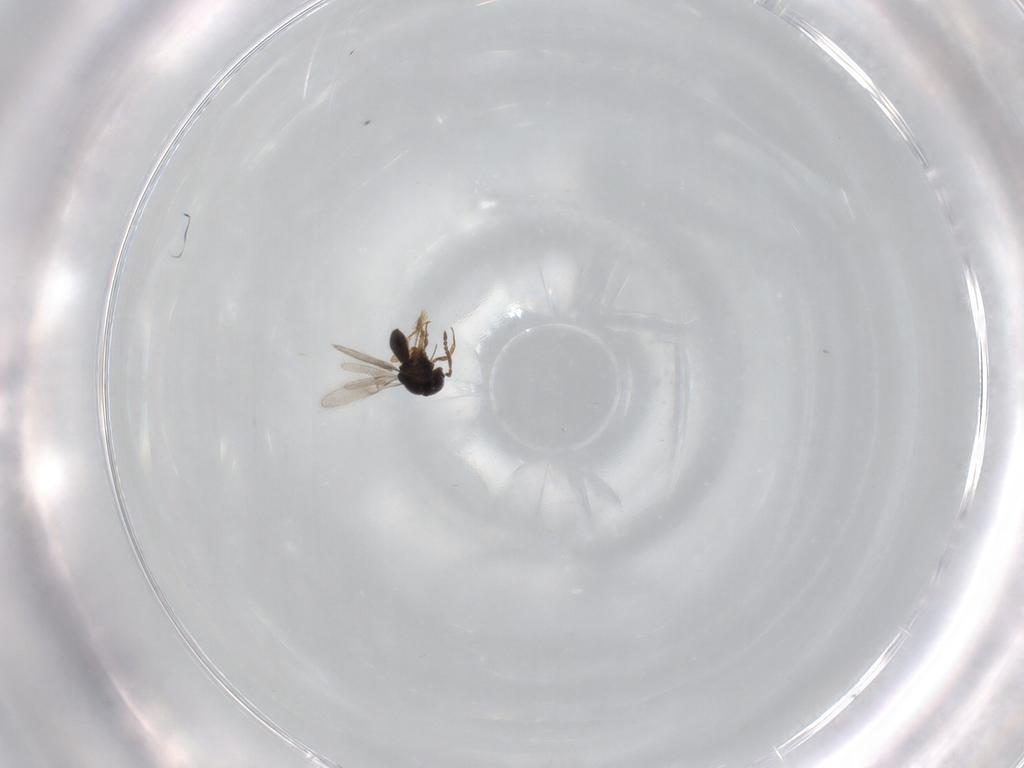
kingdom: Animalia
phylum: Arthropoda
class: Insecta
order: Hymenoptera
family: Scelionidae
